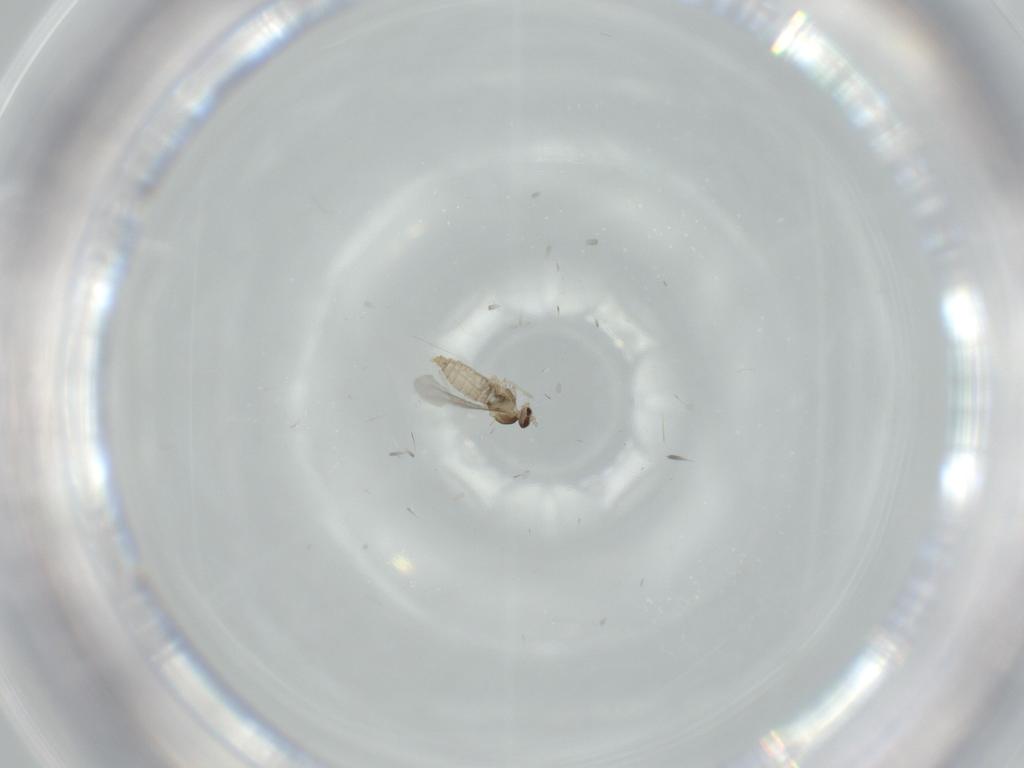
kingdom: Animalia
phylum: Arthropoda
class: Insecta
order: Diptera
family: Cecidomyiidae
